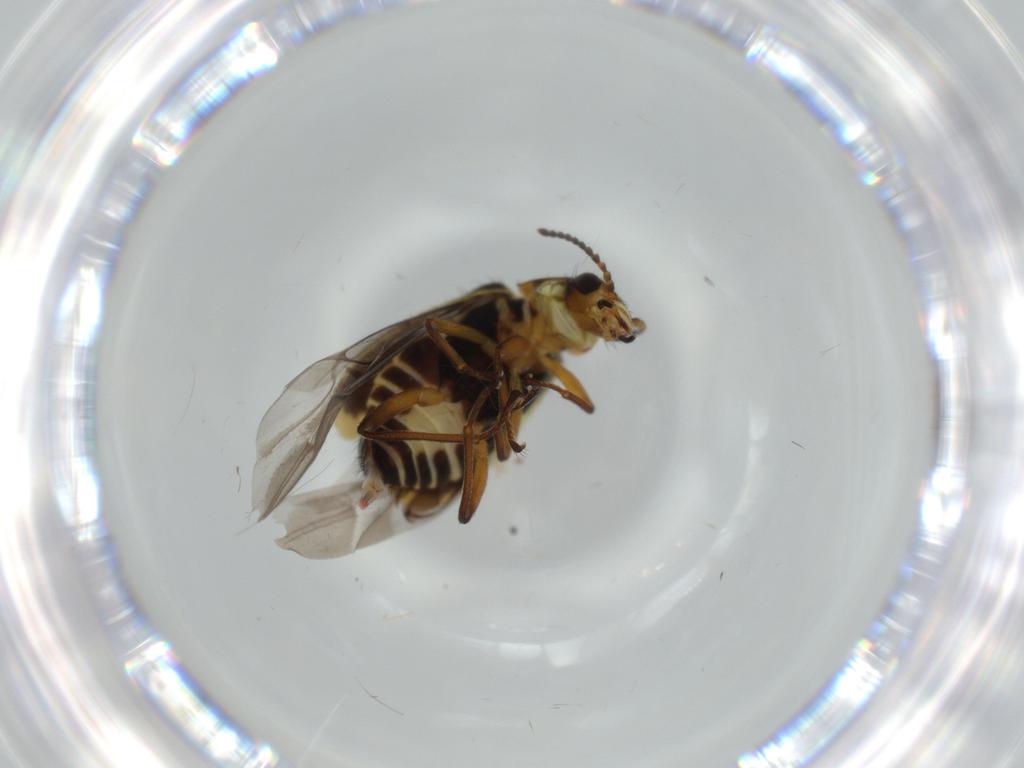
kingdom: Animalia
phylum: Arthropoda
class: Insecta
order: Coleoptera
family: Melyridae
